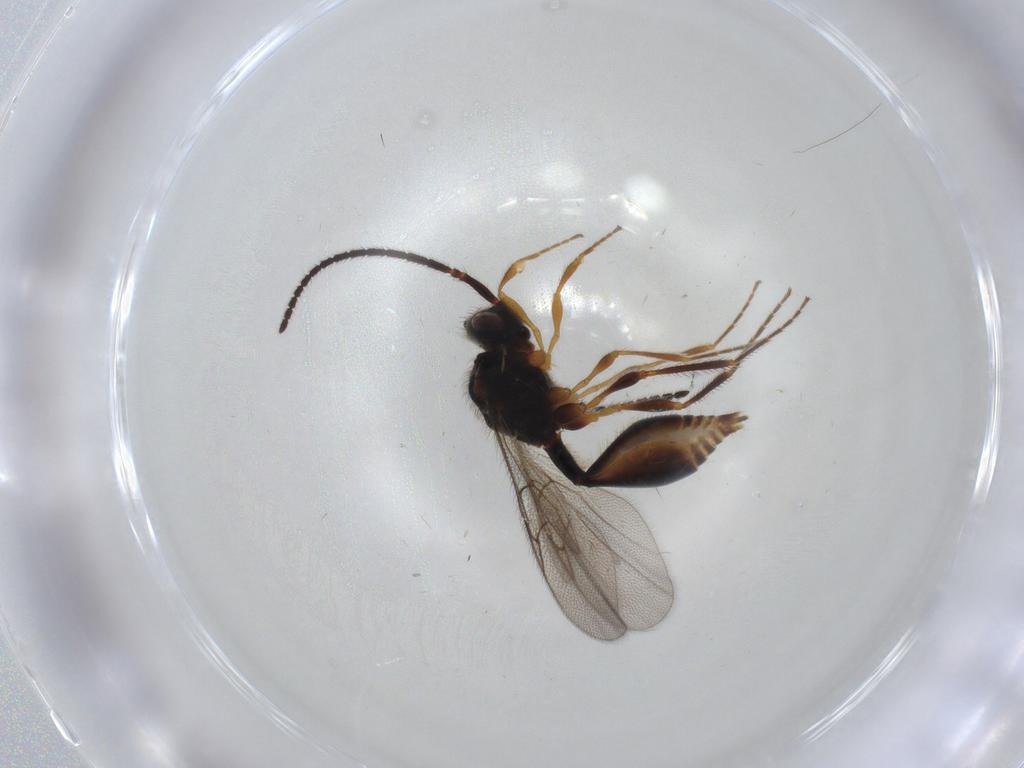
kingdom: Animalia
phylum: Arthropoda
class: Insecta
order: Hymenoptera
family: Diapriidae
